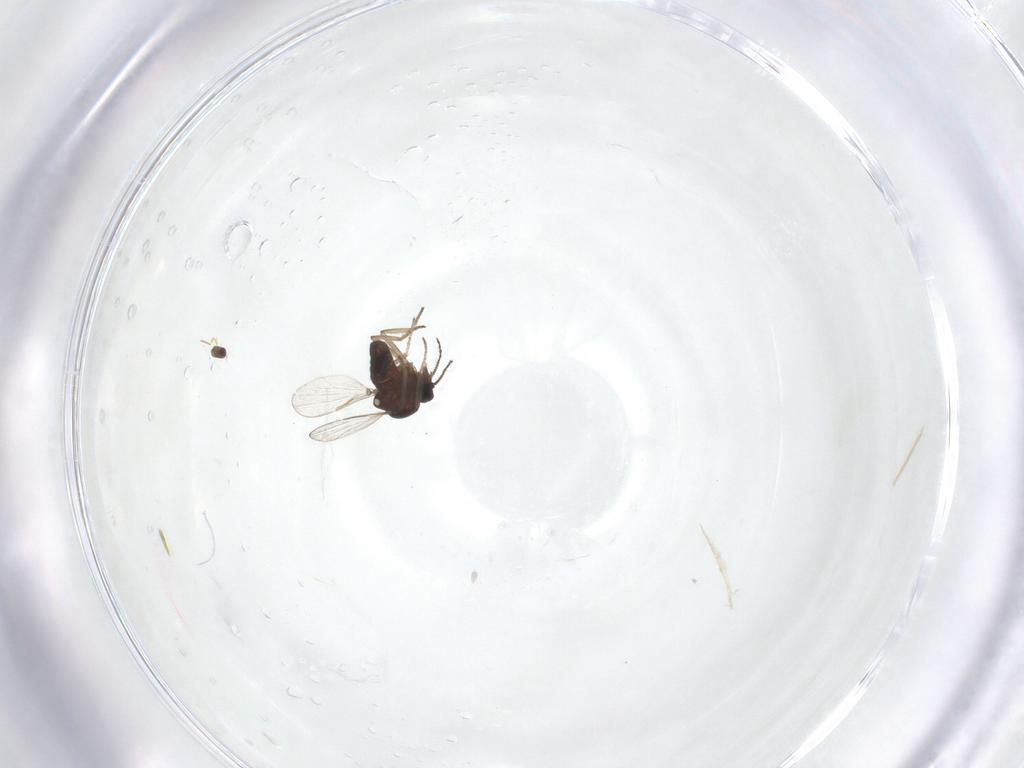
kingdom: Animalia
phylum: Arthropoda
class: Insecta
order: Diptera
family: Ceratopogonidae
